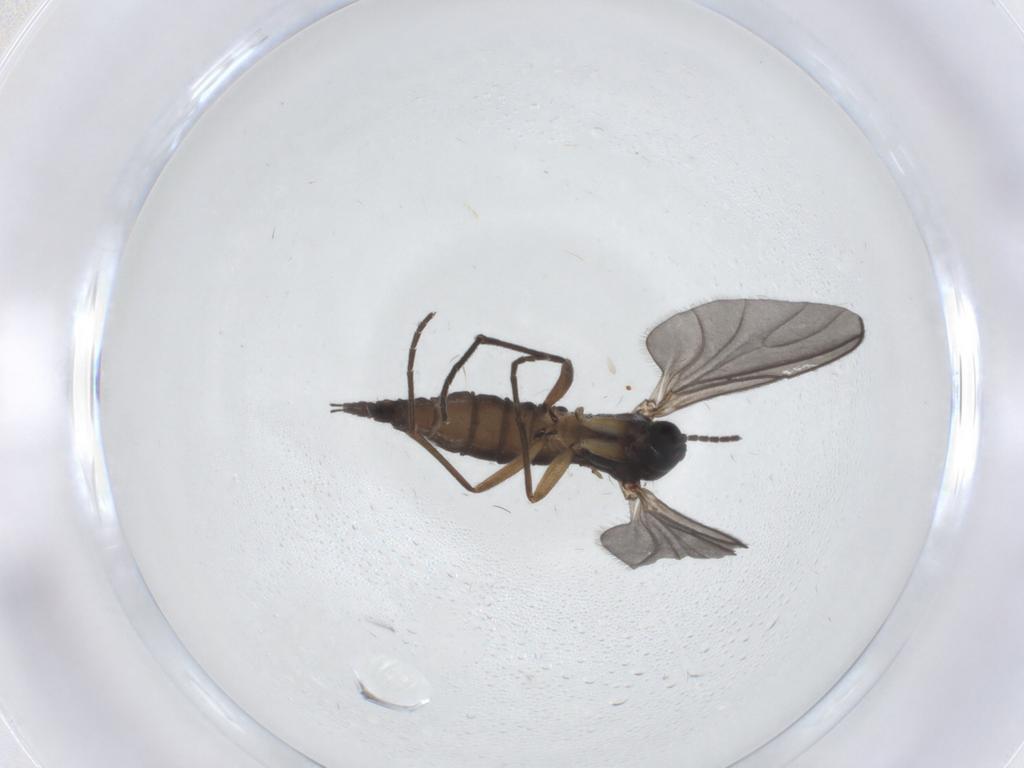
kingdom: Animalia
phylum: Arthropoda
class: Insecta
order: Diptera
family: Sciaridae
